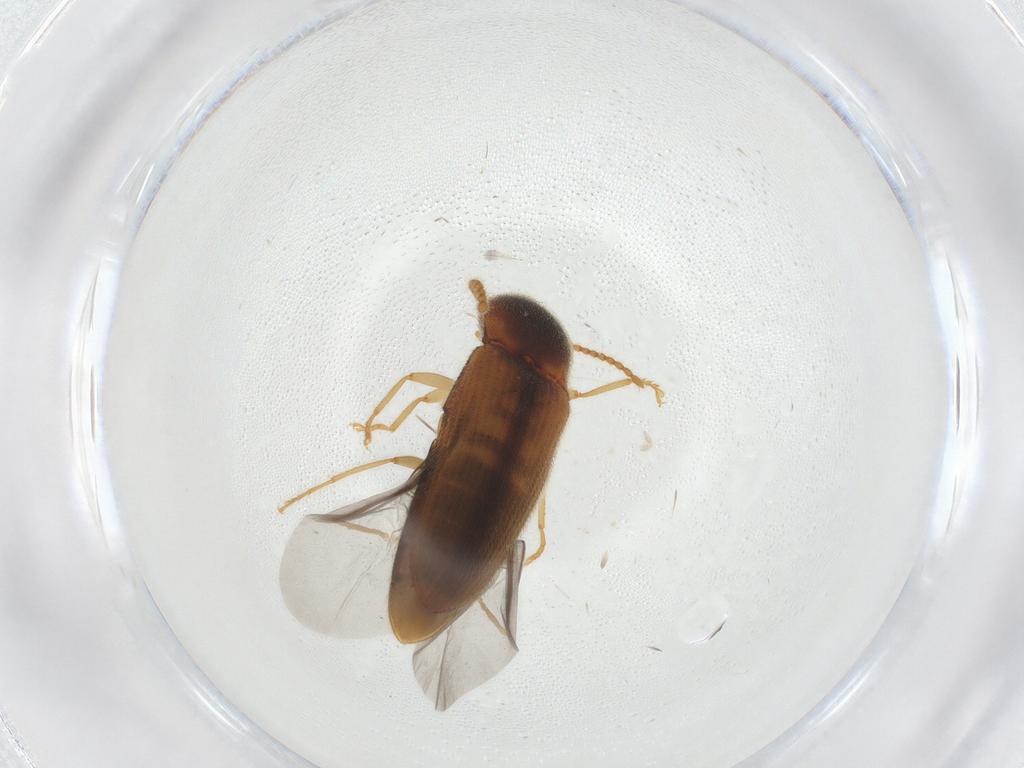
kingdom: Animalia
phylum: Arthropoda
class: Insecta
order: Coleoptera
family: Elateridae
